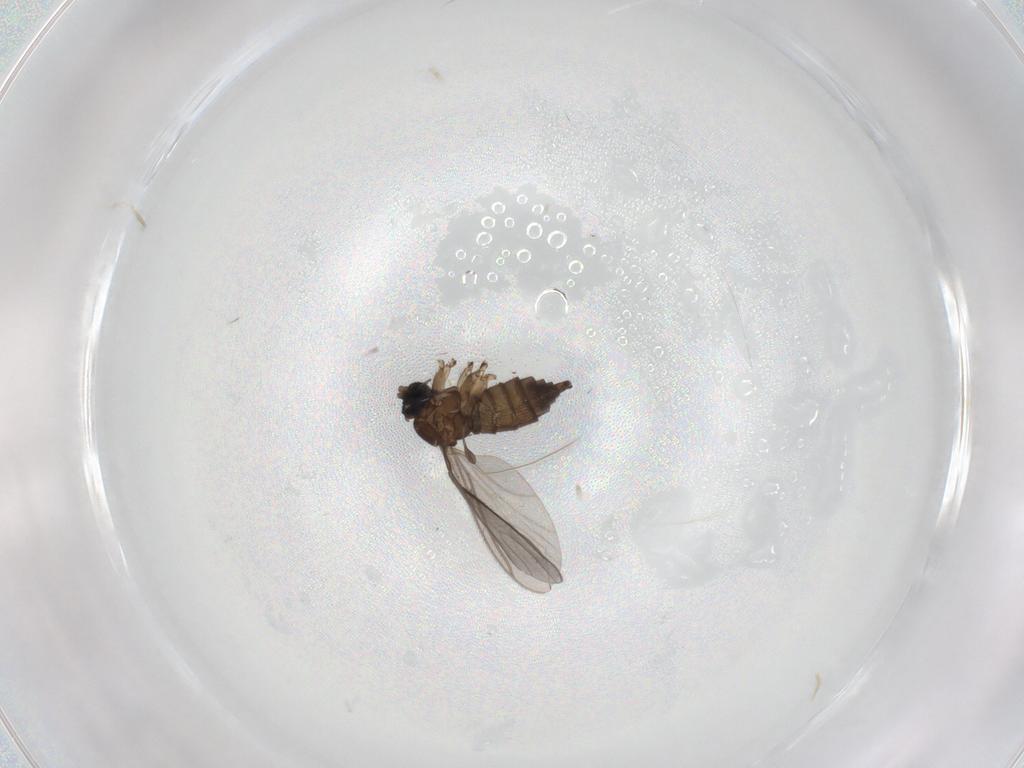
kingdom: Animalia
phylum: Arthropoda
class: Insecta
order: Diptera
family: Sciaridae
